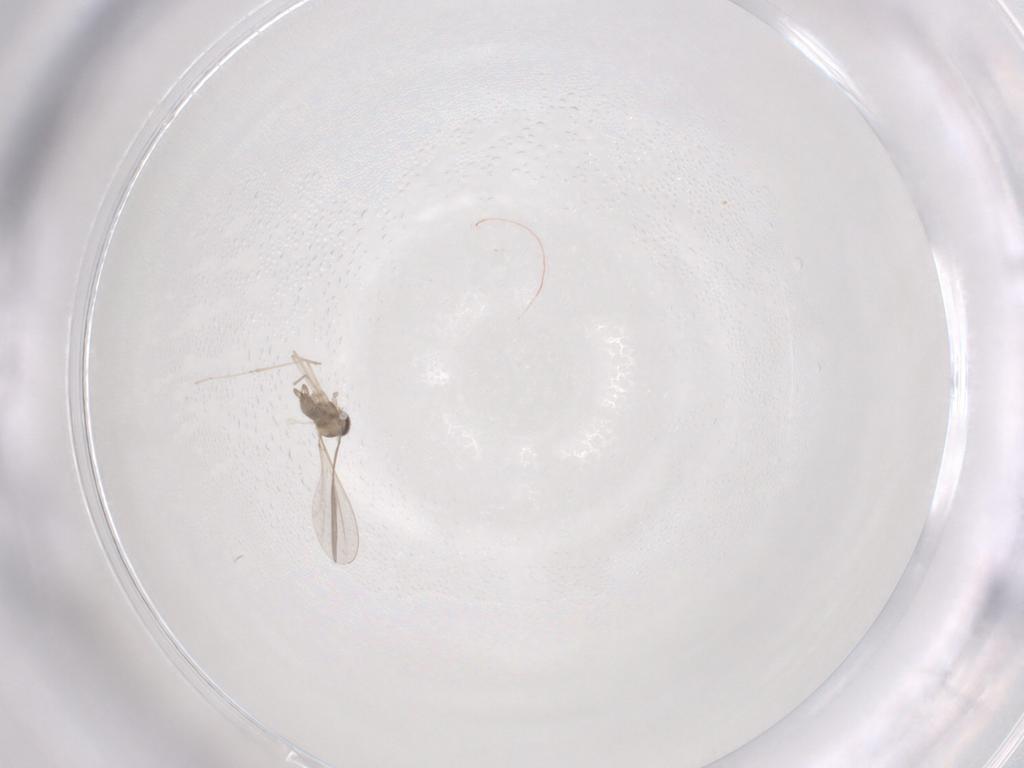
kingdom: Animalia
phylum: Arthropoda
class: Insecta
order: Diptera
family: Cecidomyiidae
